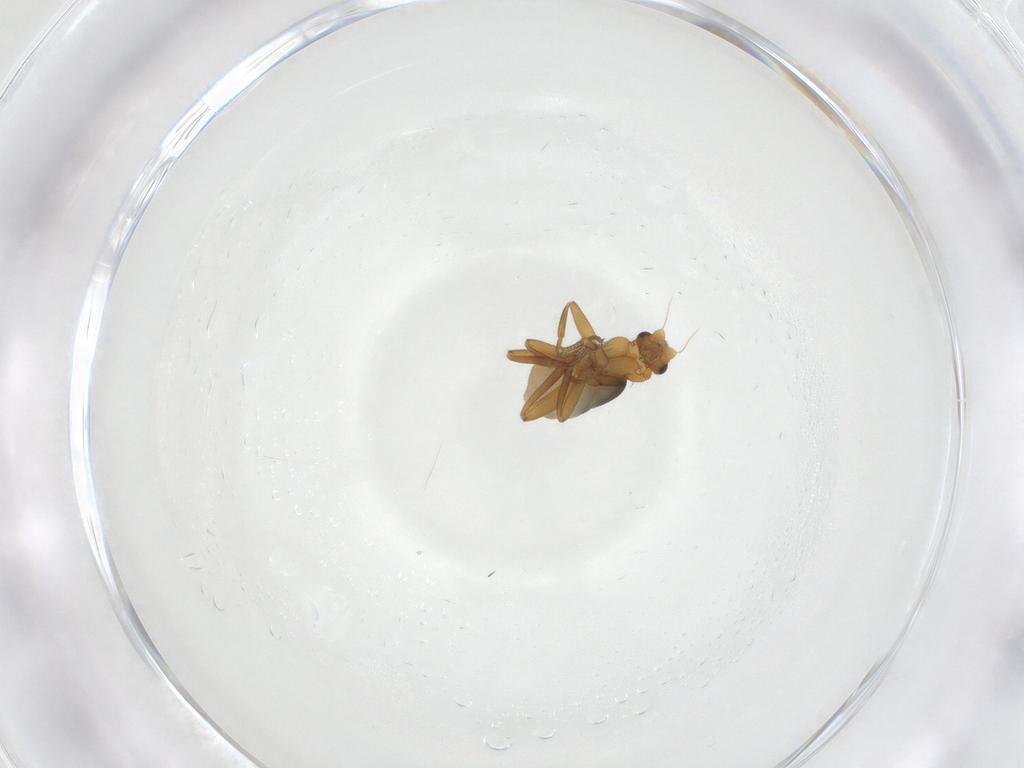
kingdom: Animalia
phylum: Arthropoda
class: Insecta
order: Diptera
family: Phoridae
